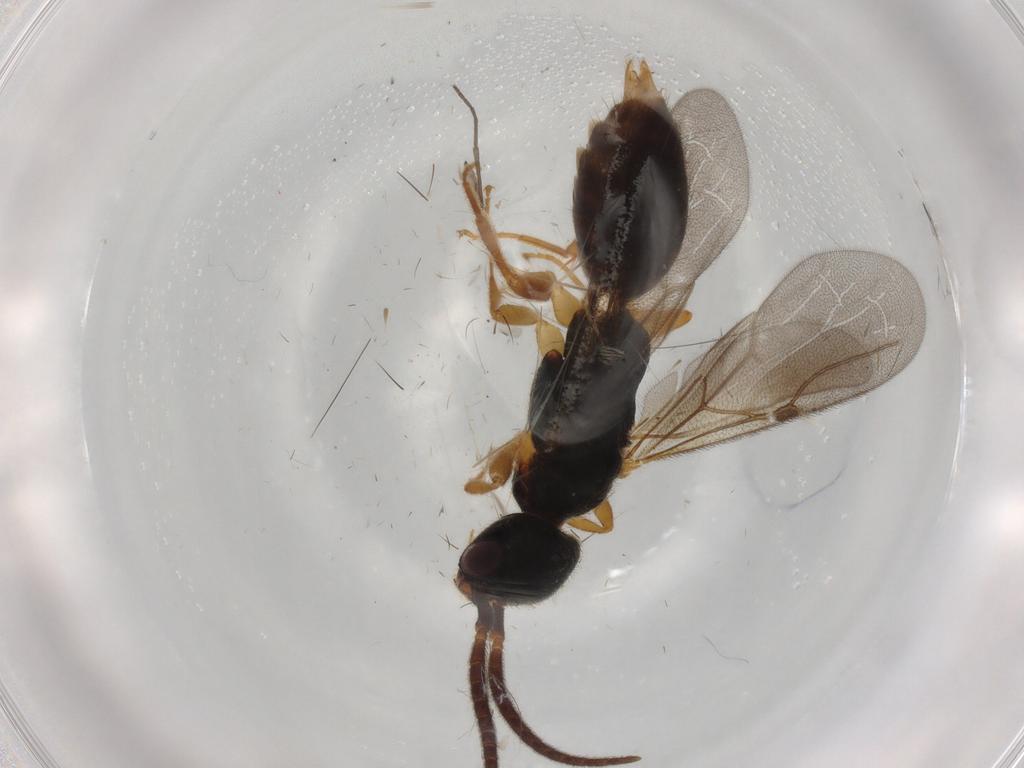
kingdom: Animalia
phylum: Arthropoda
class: Insecta
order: Hymenoptera
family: Bethylidae
